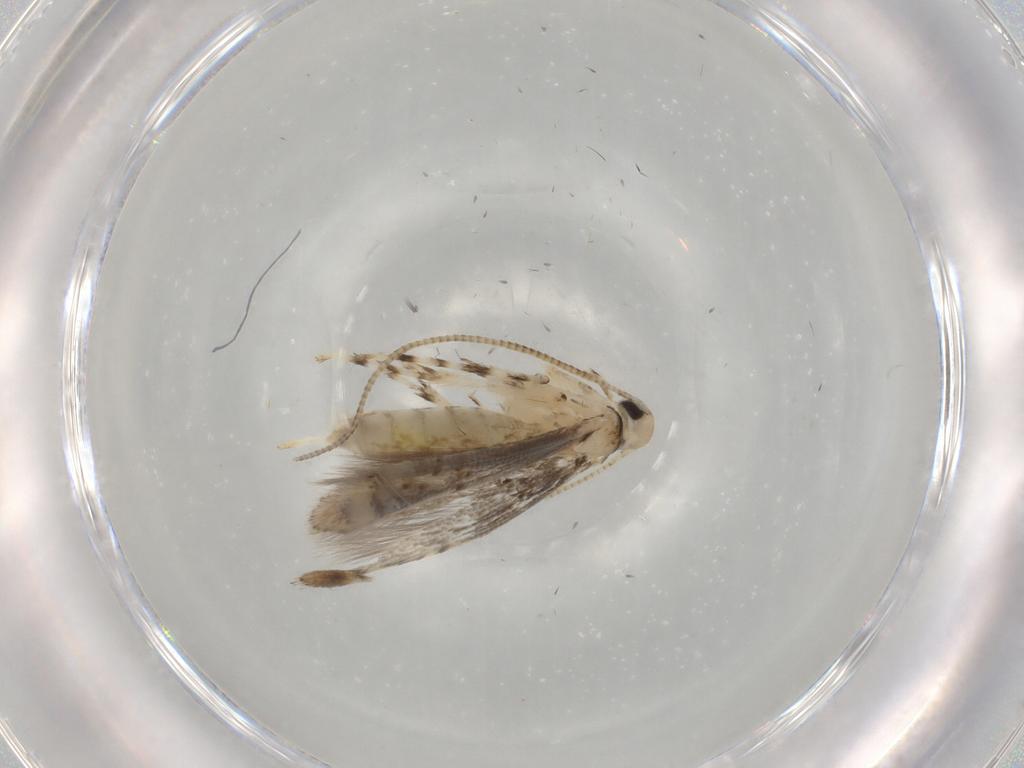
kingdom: Animalia
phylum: Arthropoda
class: Insecta
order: Lepidoptera
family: Gracillariidae
